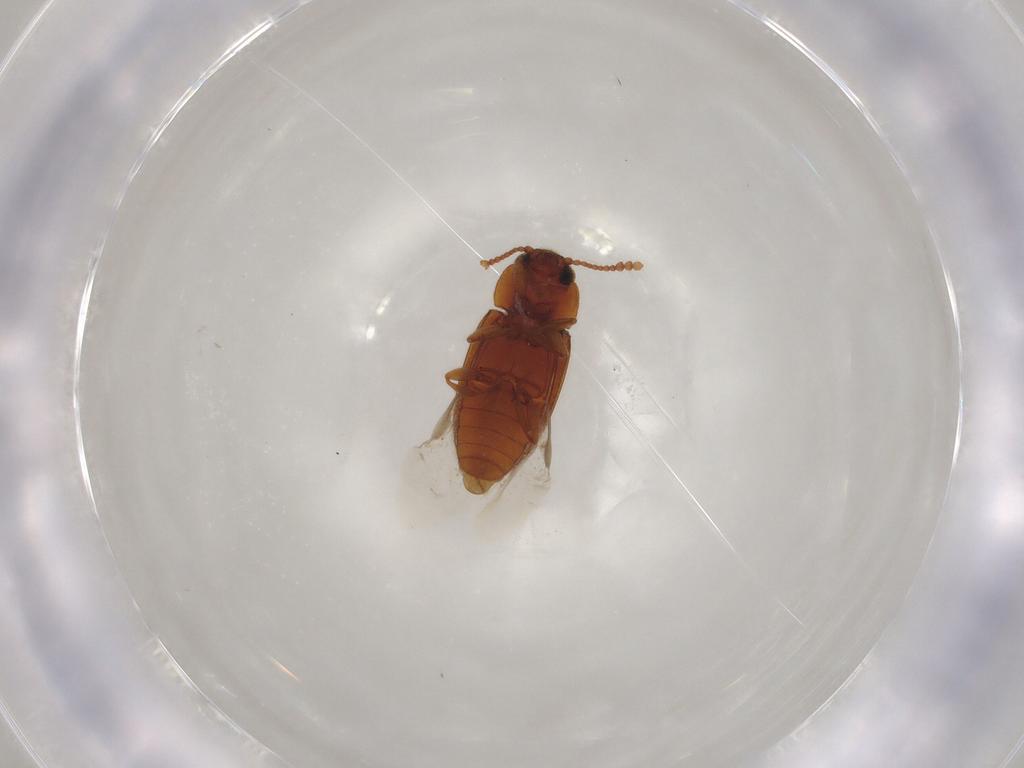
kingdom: Animalia
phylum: Arthropoda
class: Insecta
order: Coleoptera
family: Erotylidae
